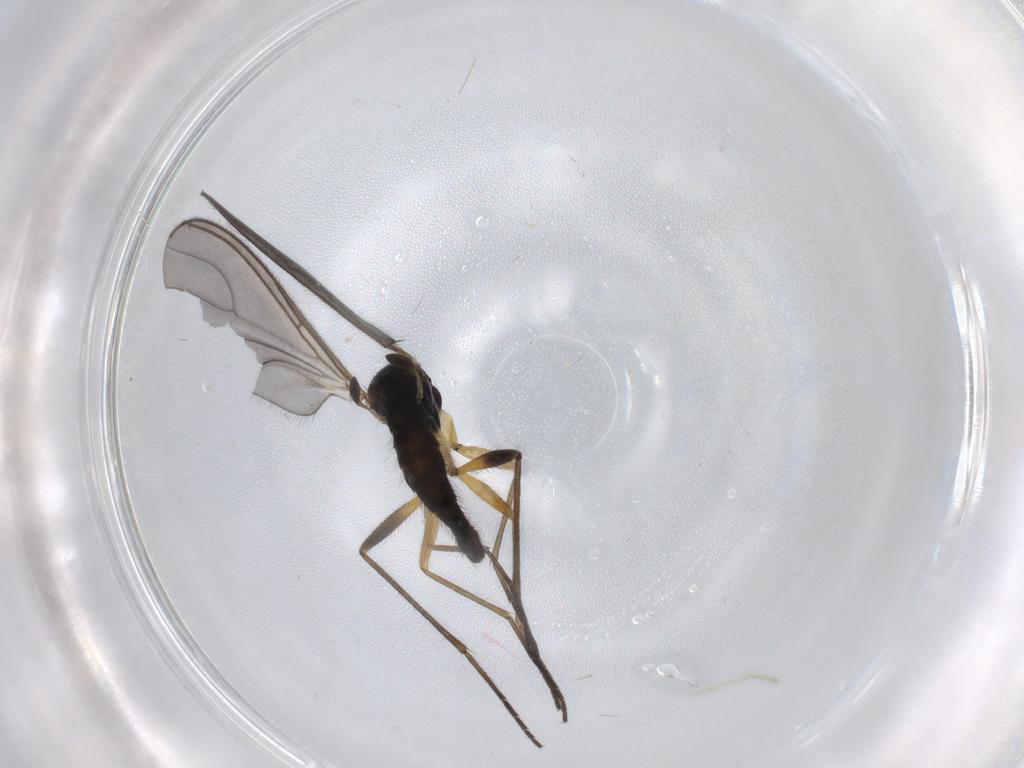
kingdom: Animalia
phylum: Arthropoda
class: Insecta
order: Diptera
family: Sciaridae
